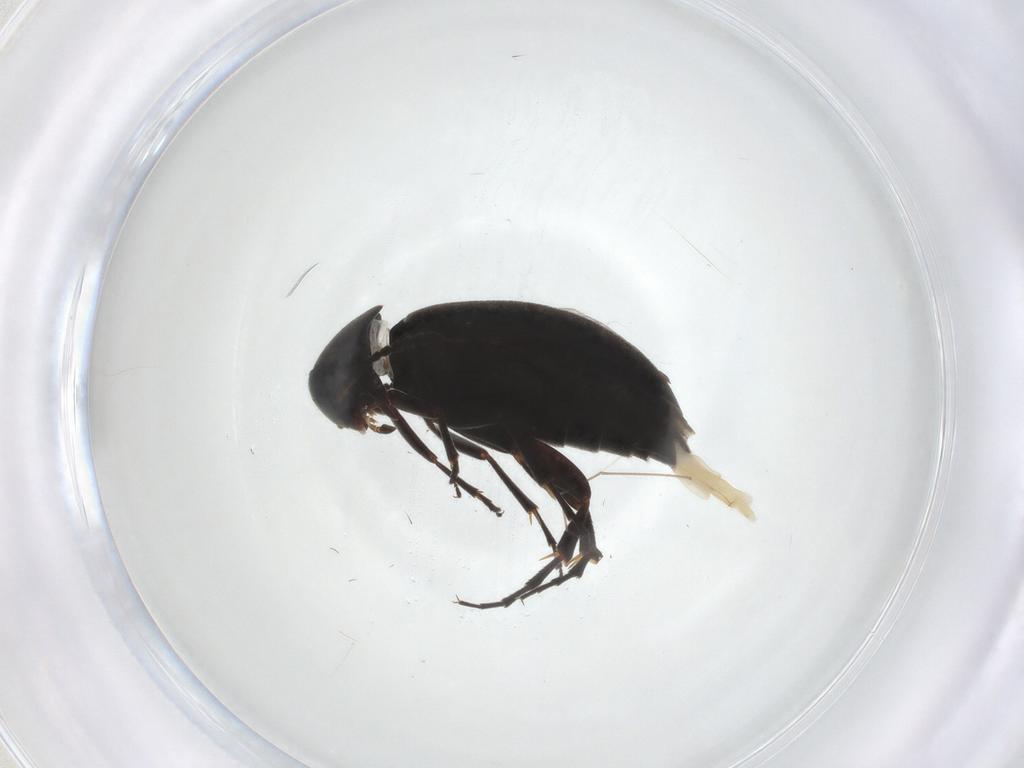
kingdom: Animalia
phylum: Arthropoda
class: Insecta
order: Coleoptera
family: Scraptiidae
